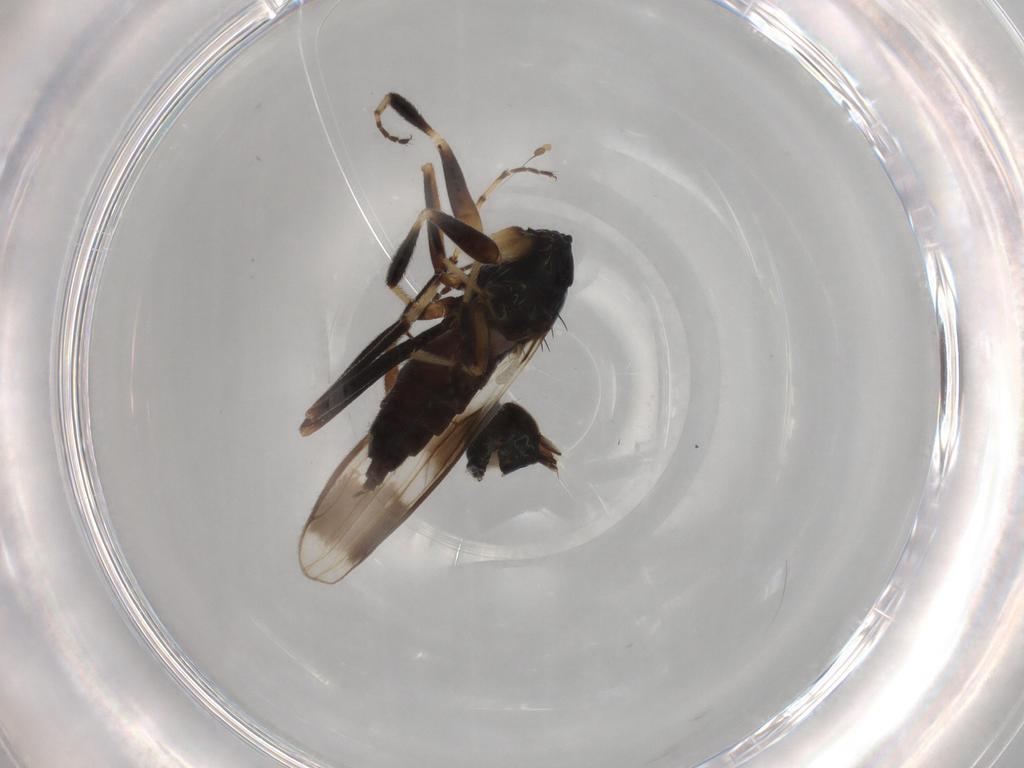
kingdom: Animalia
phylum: Arthropoda
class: Insecta
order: Diptera
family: Hybotidae
